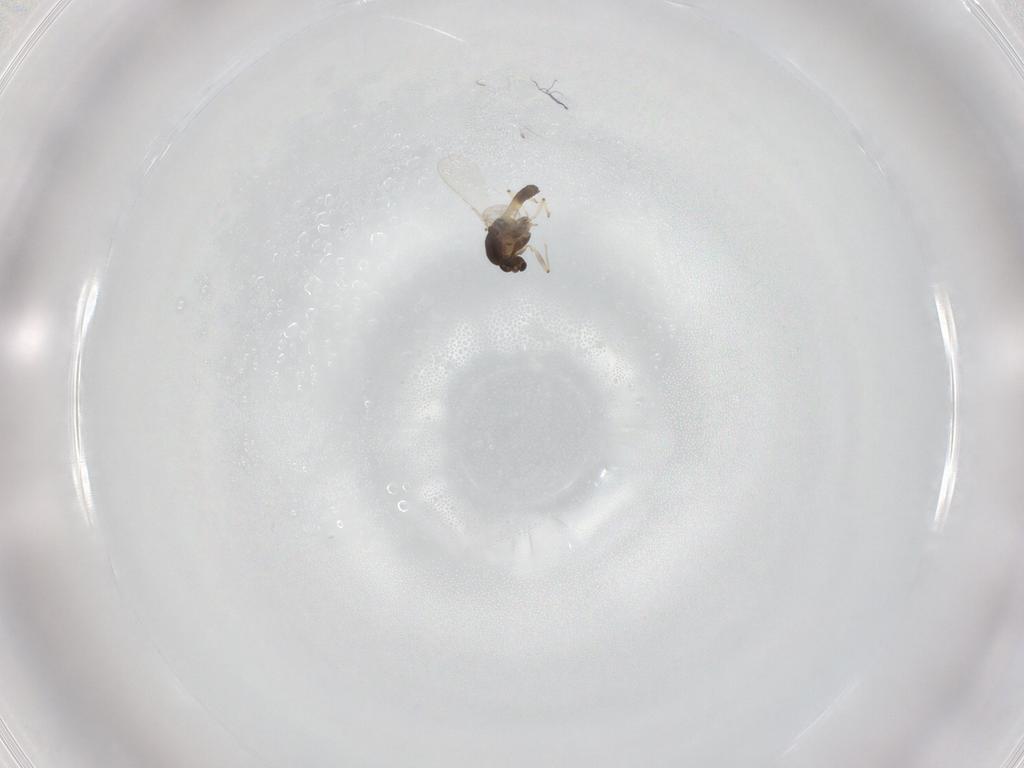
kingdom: Animalia
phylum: Arthropoda
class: Insecta
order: Diptera
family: Chironomidae
